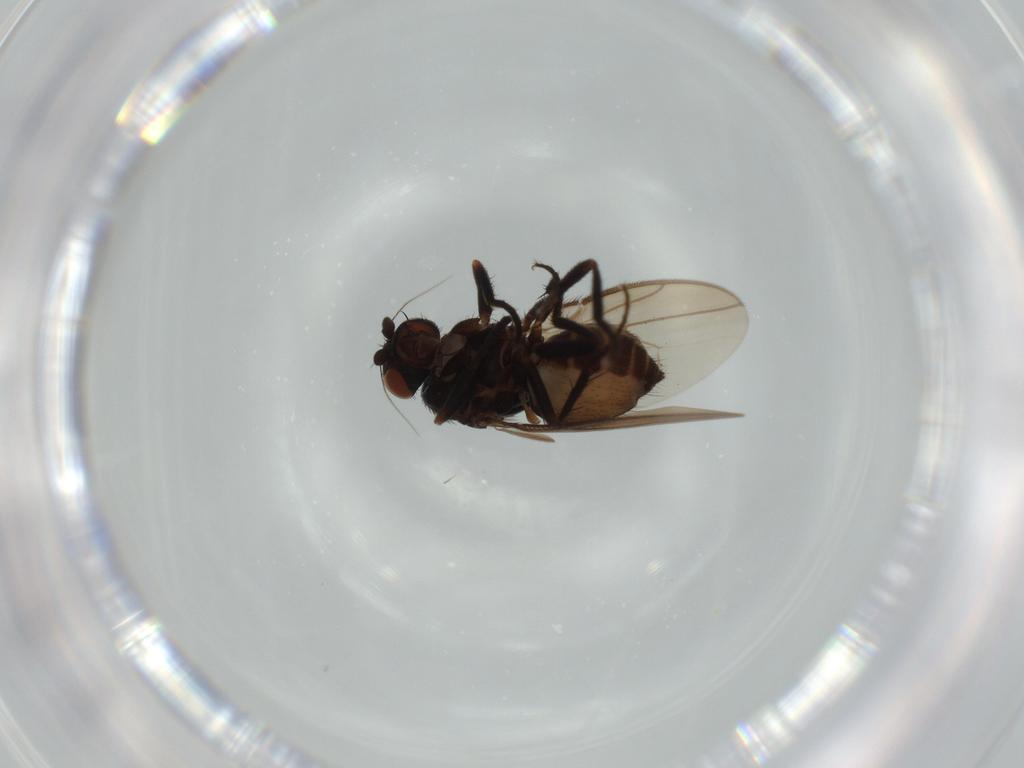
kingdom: Animalia
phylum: Arthropoda
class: Insecta
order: Diptera
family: Sphaeroceridae
